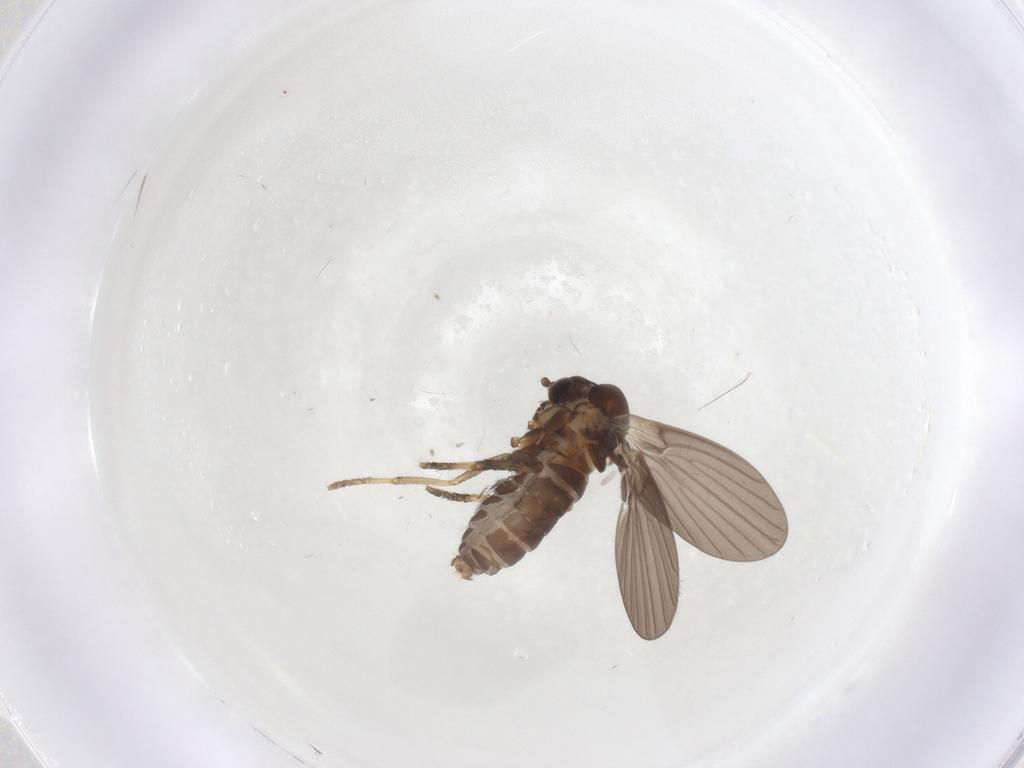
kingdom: Animalia
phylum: Arthropoda
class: Insecta
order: Diptera
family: Psychodidae
